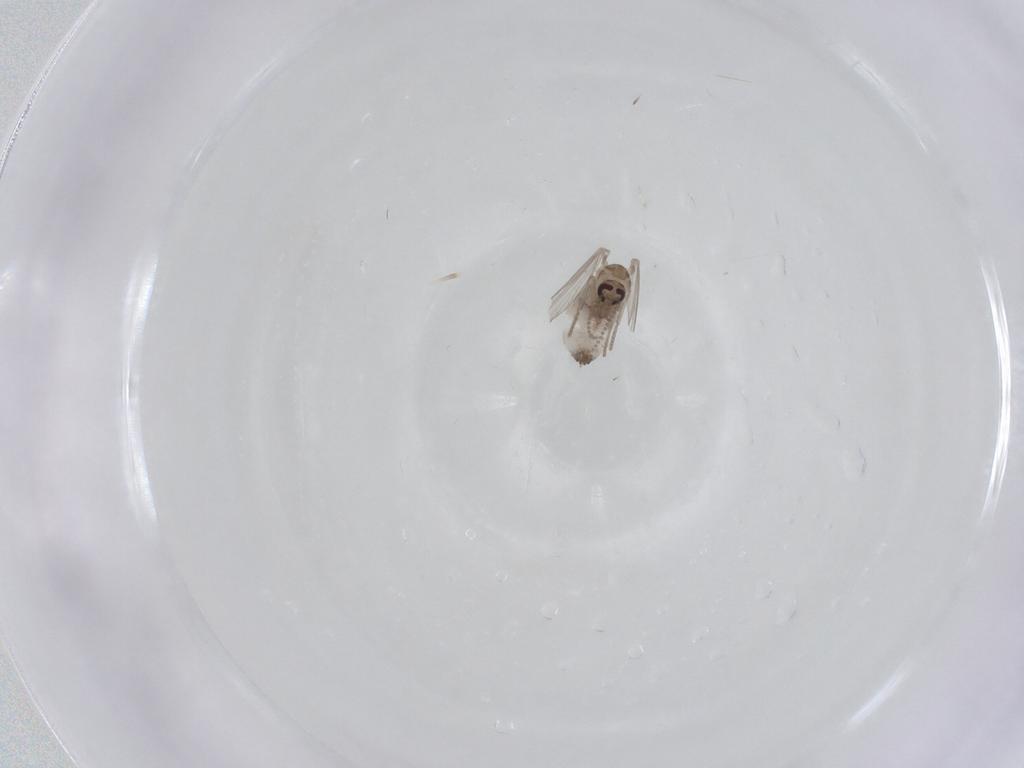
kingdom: Animalia
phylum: Arthropoda
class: Insecta
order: Diptera
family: Psychodidae
